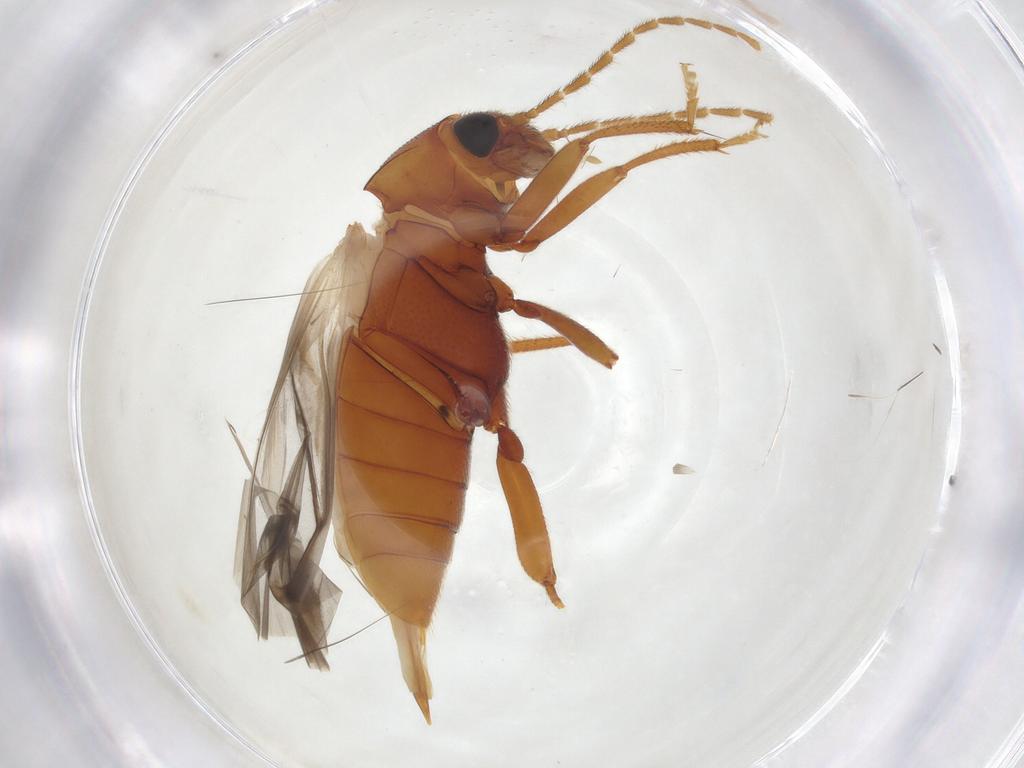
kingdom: Animalia
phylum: Arthropoda
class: Insecta
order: Coleoptera
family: Ptilodactylidae
